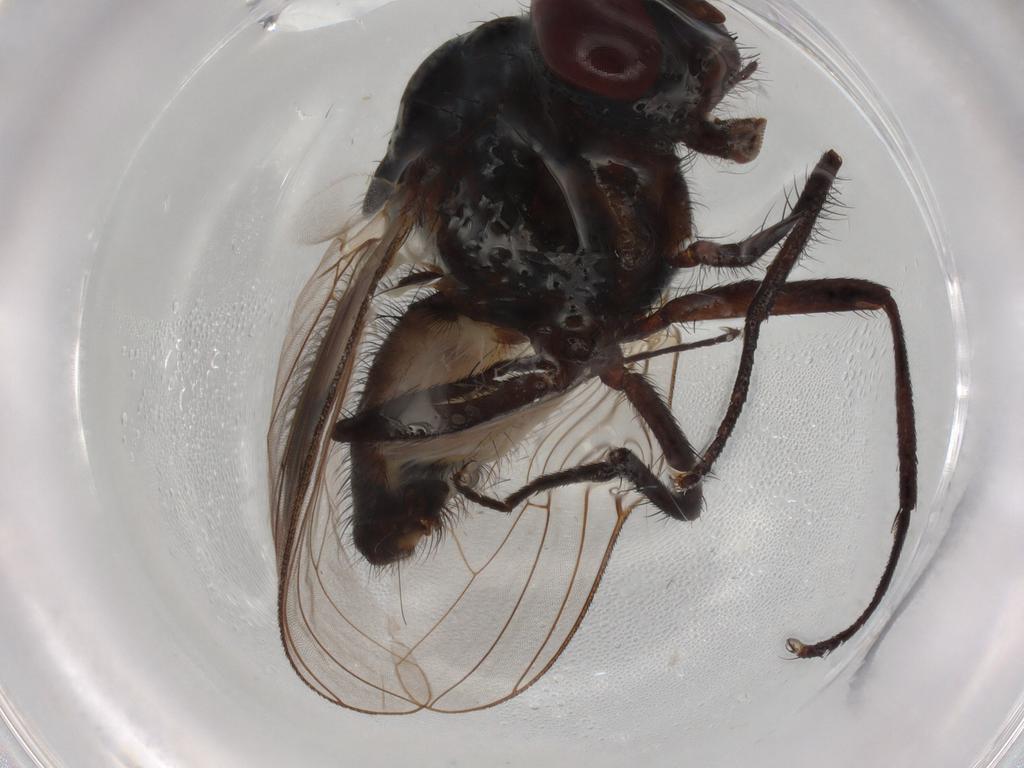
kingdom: Animalia
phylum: Arthropoda
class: Insecta
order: Diptera
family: Anthomyiidae
